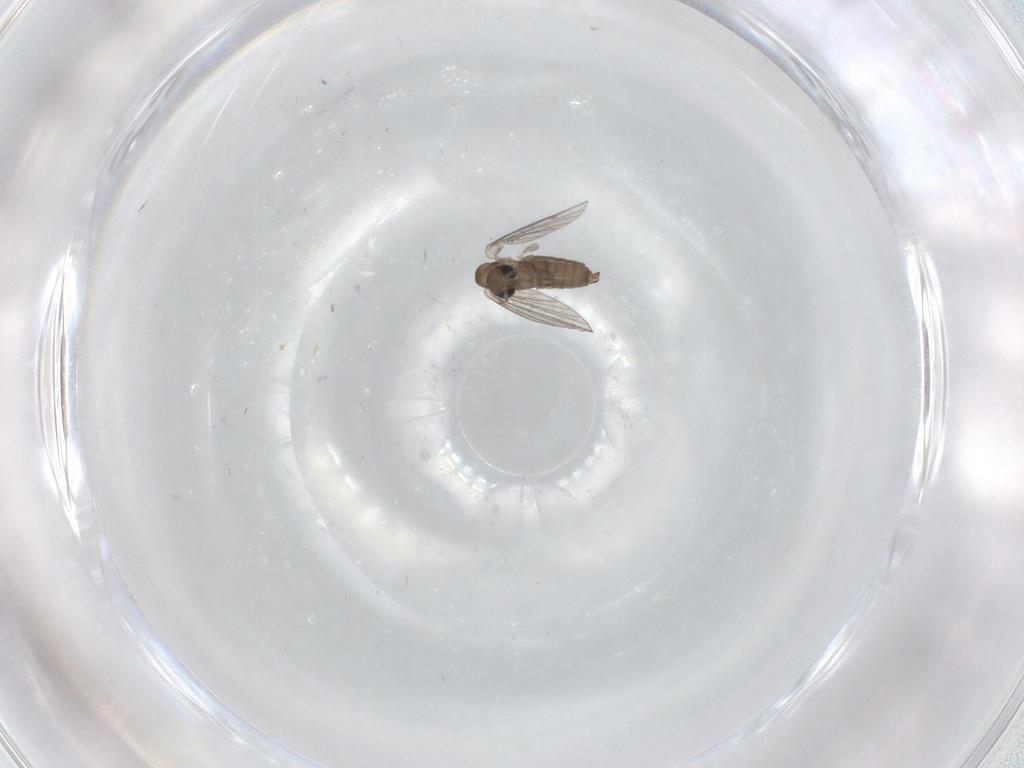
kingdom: Animalia
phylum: Arthropoda
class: Insecta
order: Diptera
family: Ephydridae
